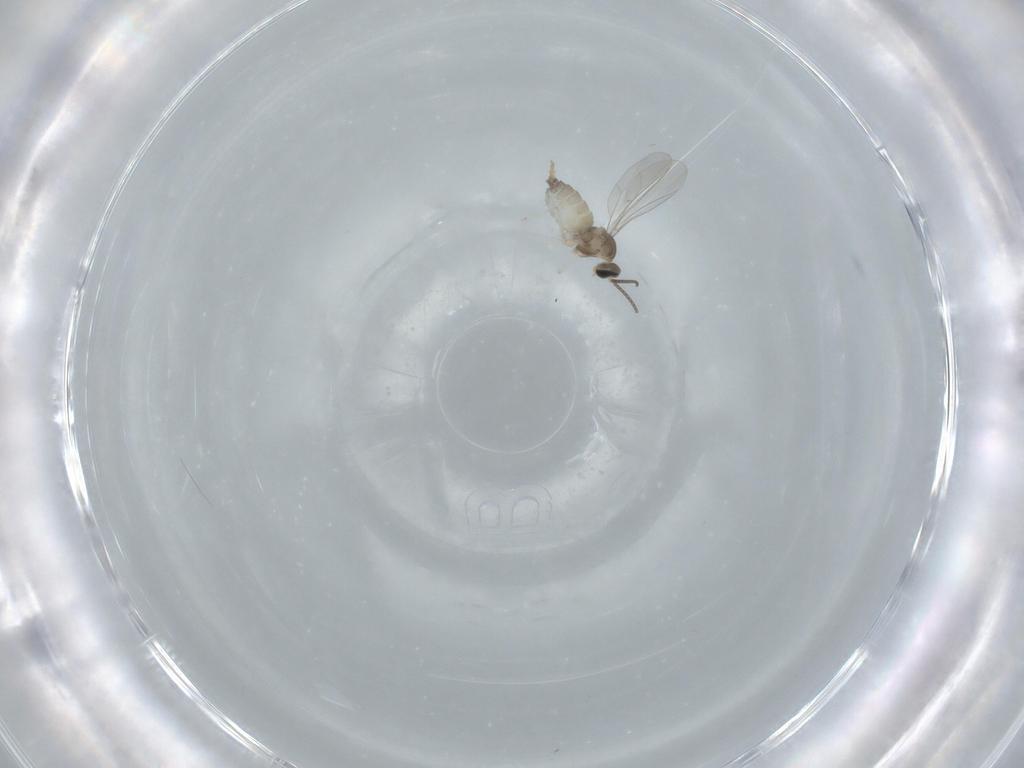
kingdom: Animalia
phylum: Arthropoda
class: Insecta
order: Diptera
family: Cecidomyiidae
